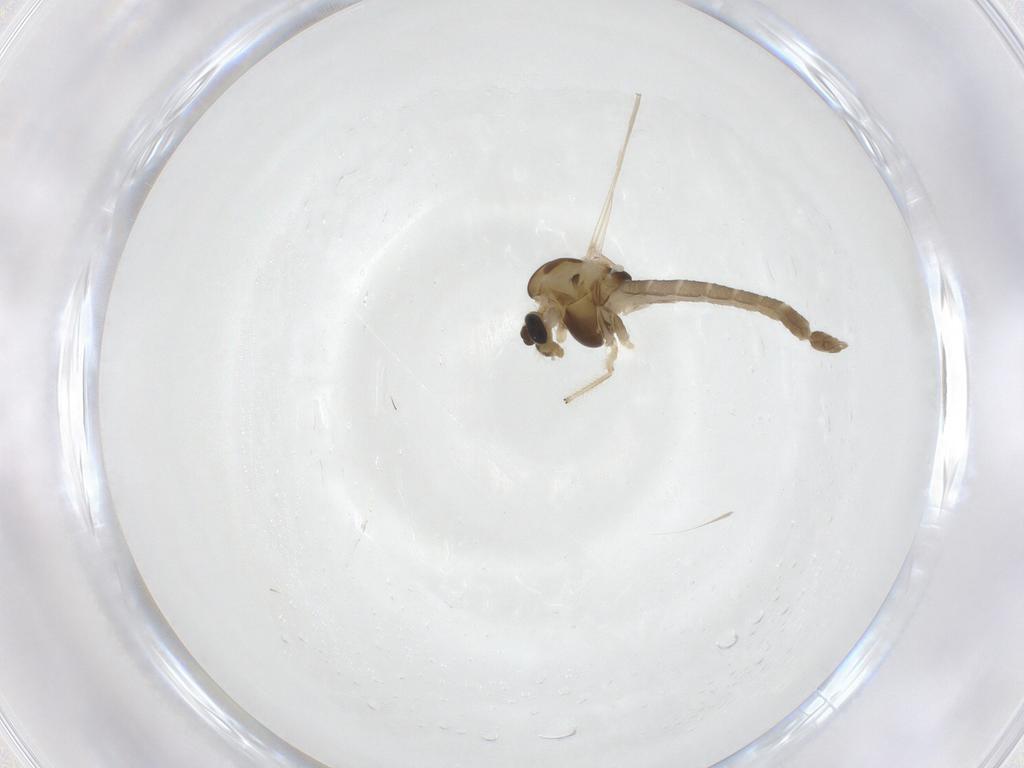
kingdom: Animalia
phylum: Arthropoda
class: Insecta
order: Diptera
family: Chironomidae
